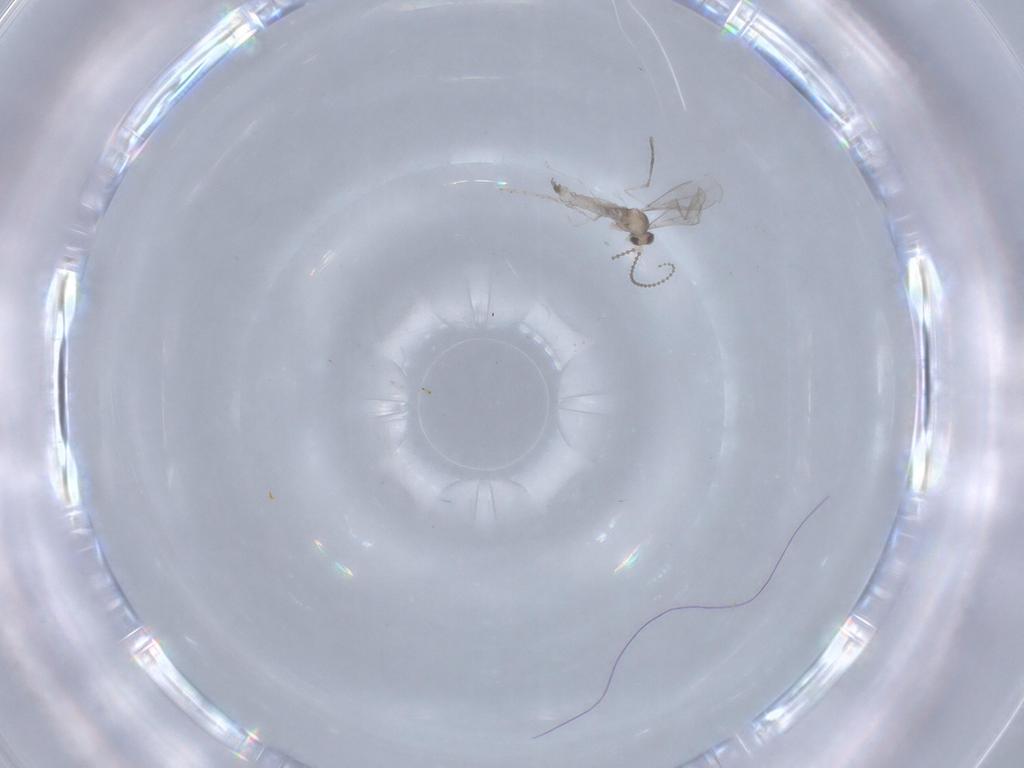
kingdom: Animalia
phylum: Arthropoda
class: Insecta
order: Diptera
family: Cecidomyiidae
